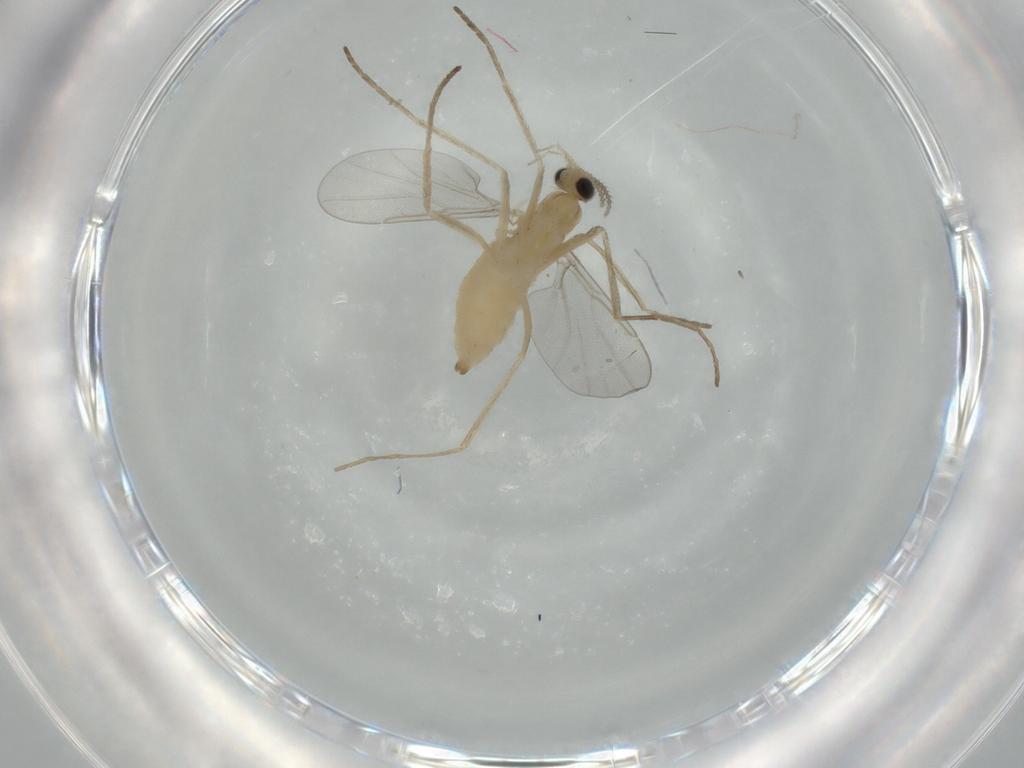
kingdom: Animalia
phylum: Arthropoda
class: Insecta
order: Diptera
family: Cecidomyiidae
